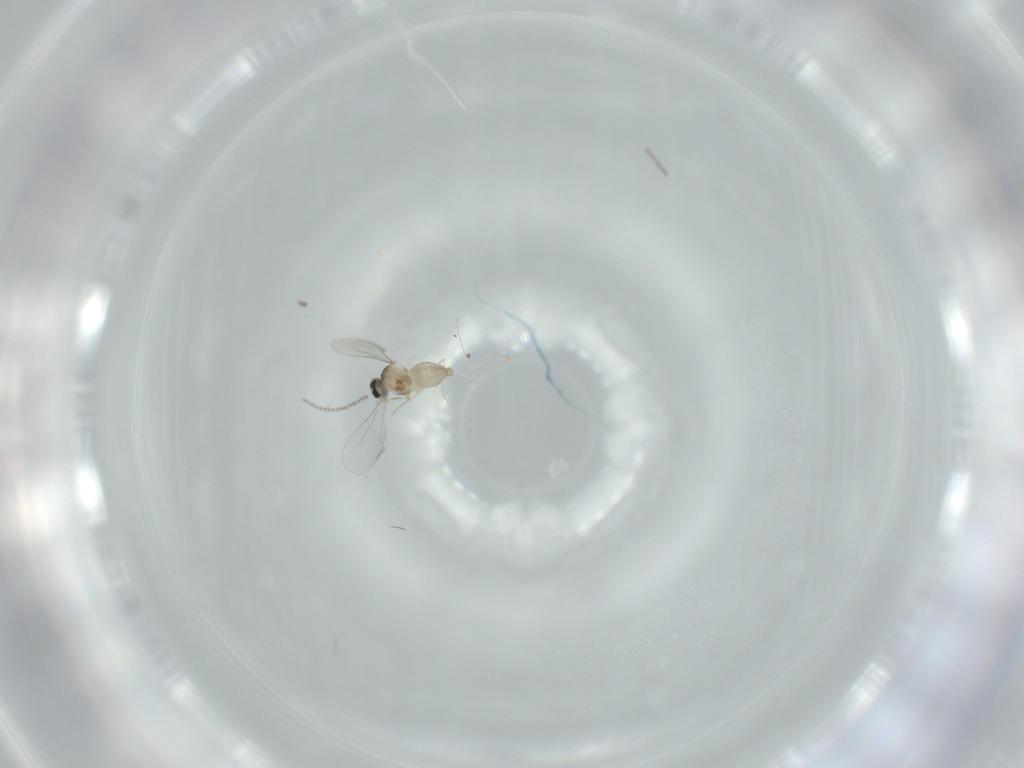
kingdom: Animalia
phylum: Arthropoda
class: Insecta
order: Diptera
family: Cecidomyiidae
